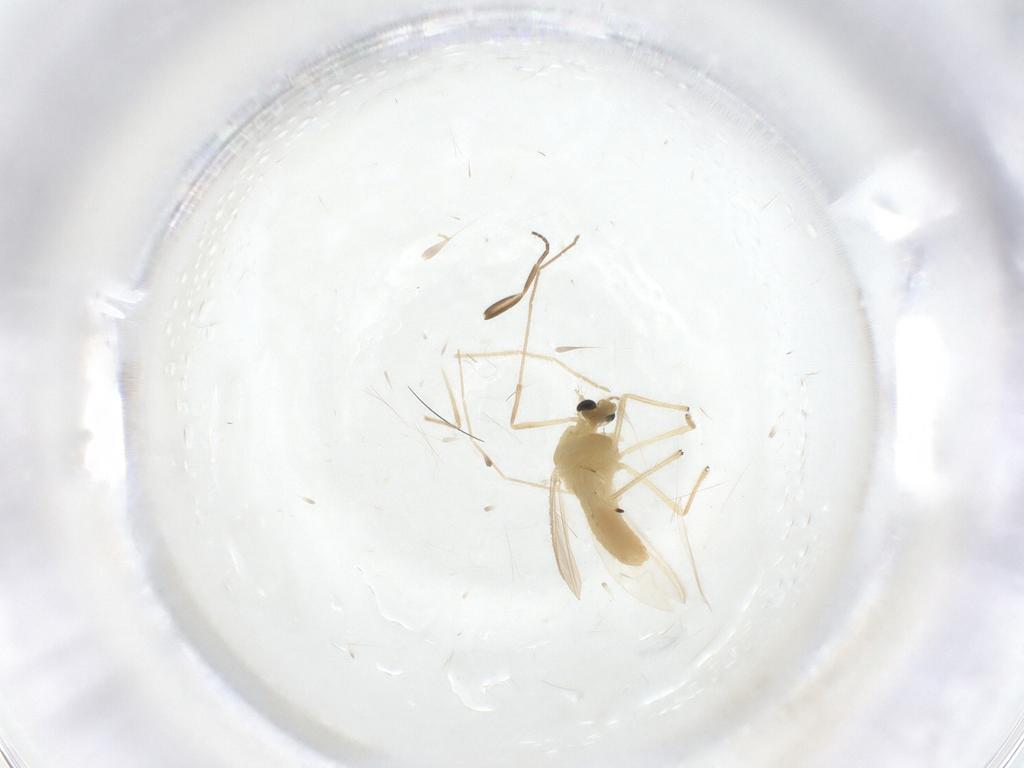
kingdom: Animalia
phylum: Arthropoda
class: Insecta
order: Diptera
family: Chironomidae
